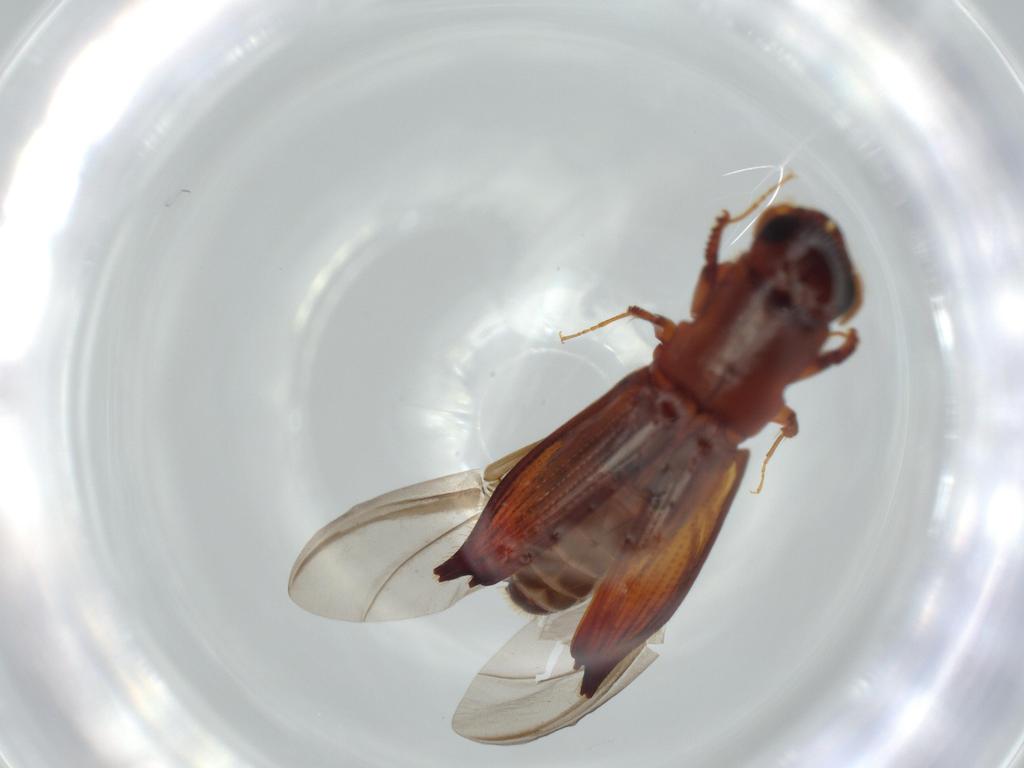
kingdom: Animalia
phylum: Arthropoda
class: Insecta
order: Coleoptera
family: Curculionidae
